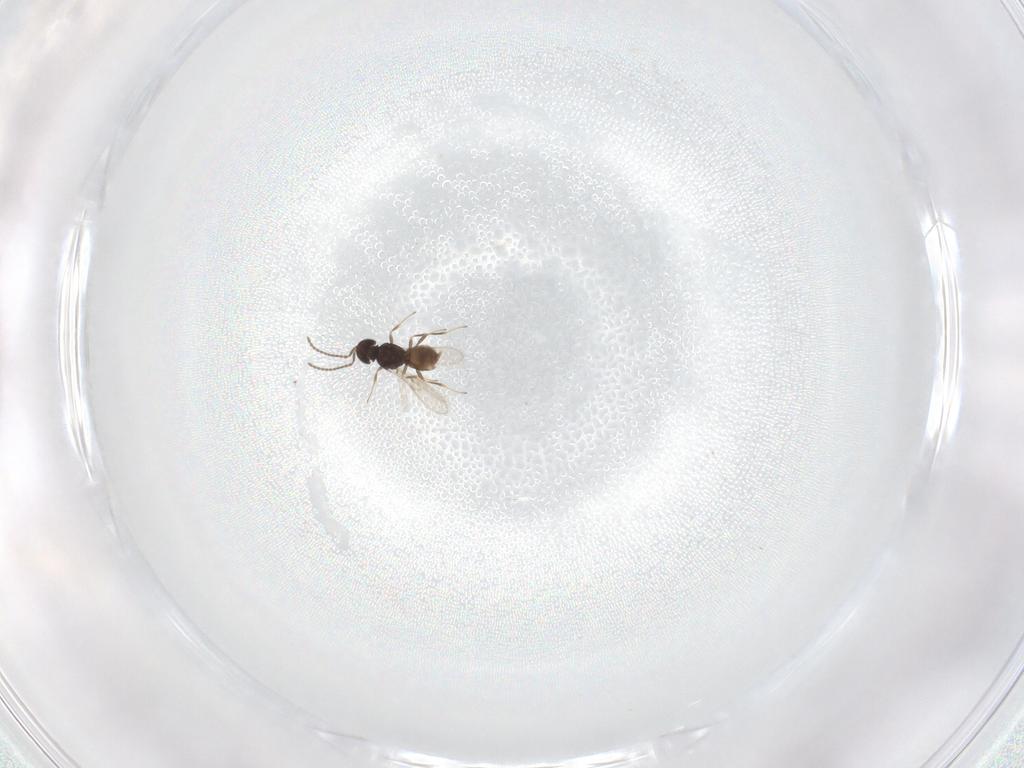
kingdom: Animalia
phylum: Arthropoda
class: Insecta
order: Hymenoptera
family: Scelionidae
